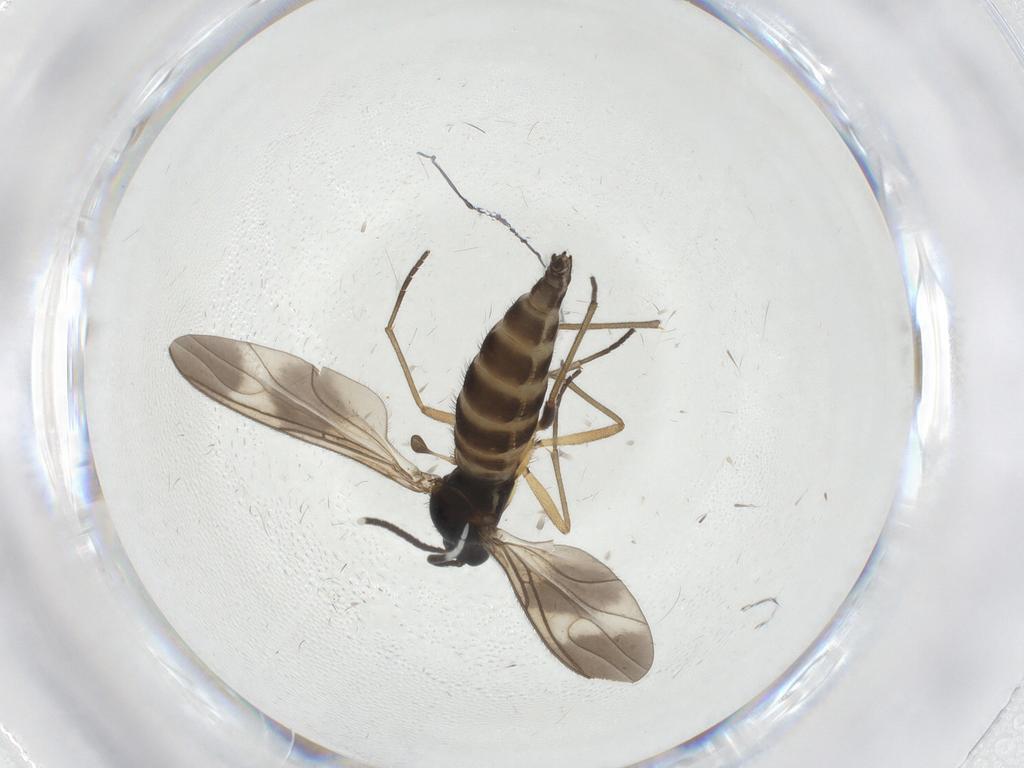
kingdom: Animalia
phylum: Arthropoda
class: Insecta
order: Diptera
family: Sciaridae
